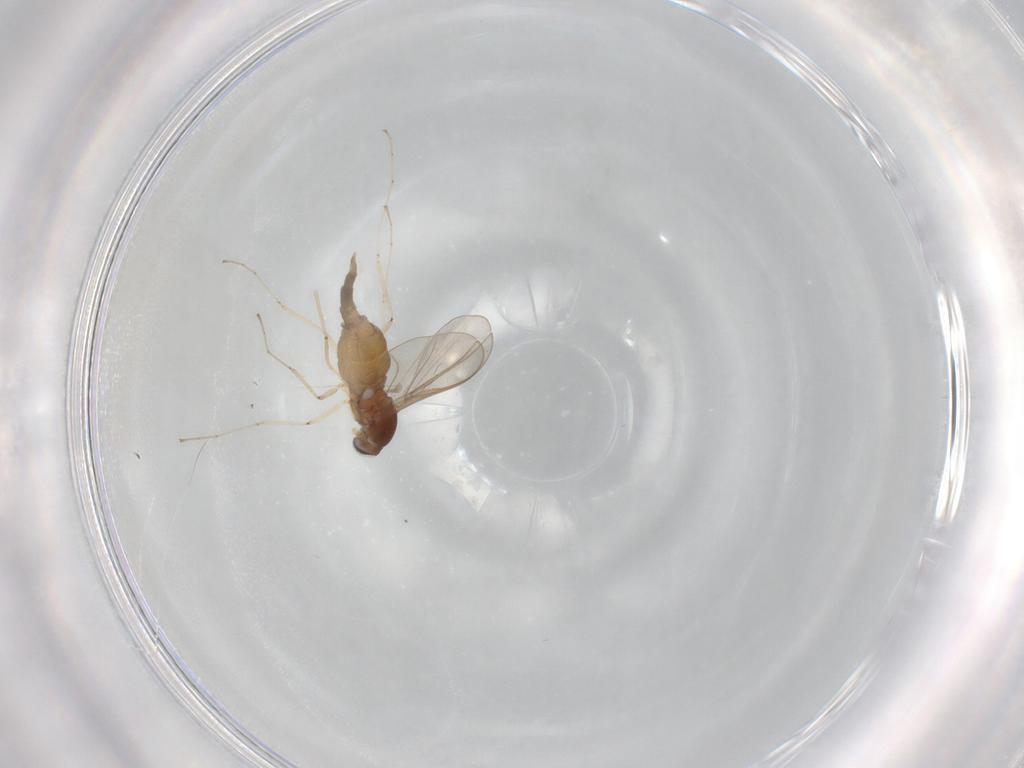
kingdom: Animalia
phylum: Arthropoda
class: Insecta
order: Diptera
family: Cecidomyiidae
